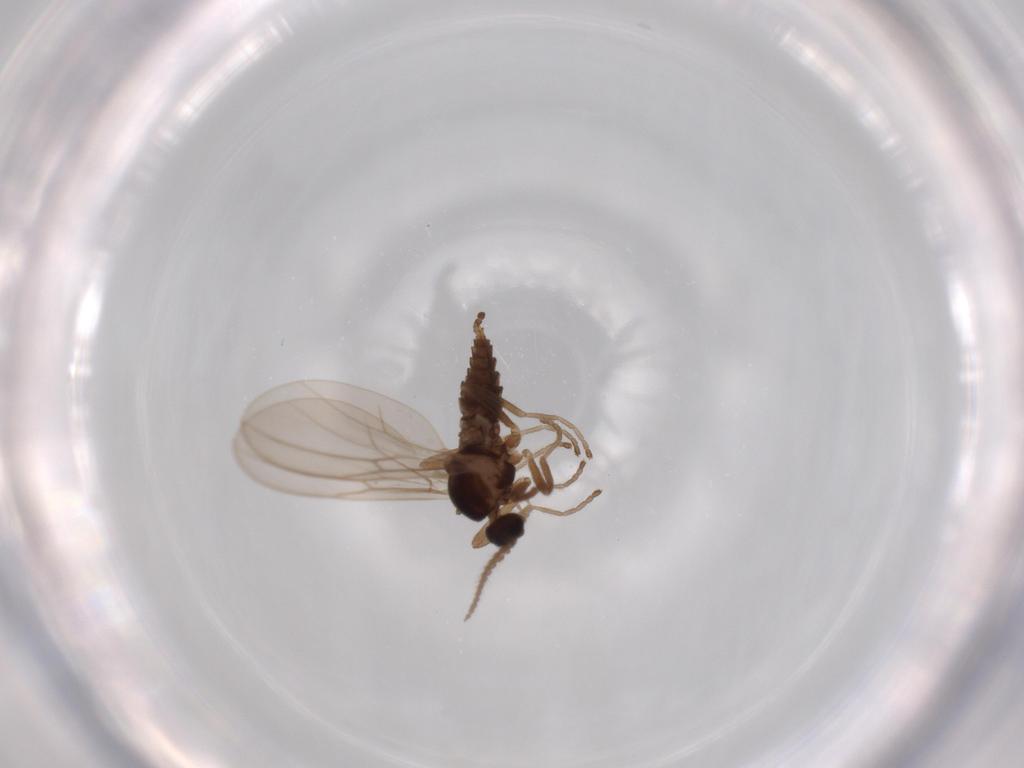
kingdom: Animalia
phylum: Arthropoda
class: Insecta
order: Diptera
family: Cecidomyiidae
